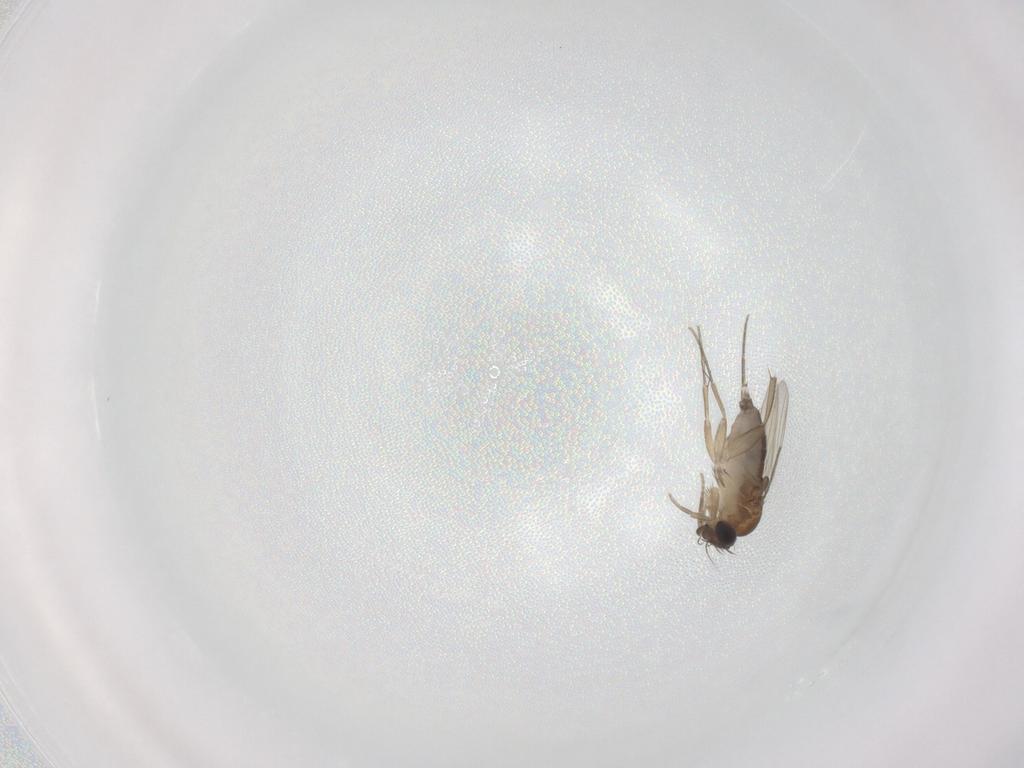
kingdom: Animalia
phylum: Arthropoda
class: Insecta
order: Diptera
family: Phoridae
